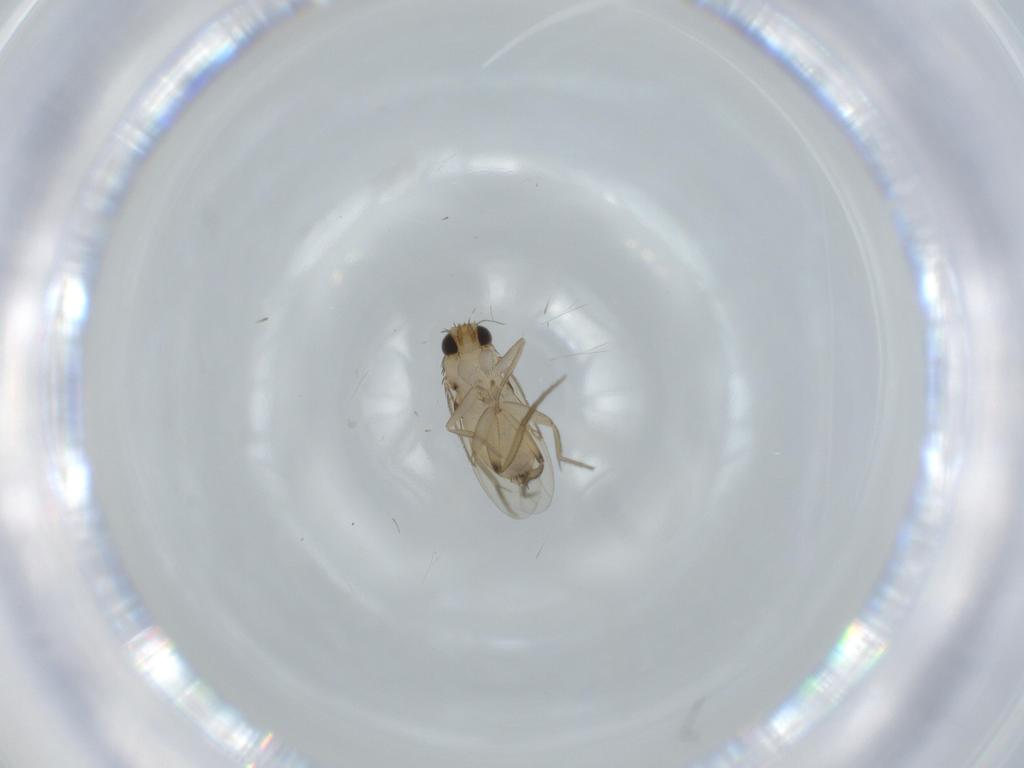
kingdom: Animalia
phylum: Arthropoda
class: Insecta
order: Diptera
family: Phoridae
